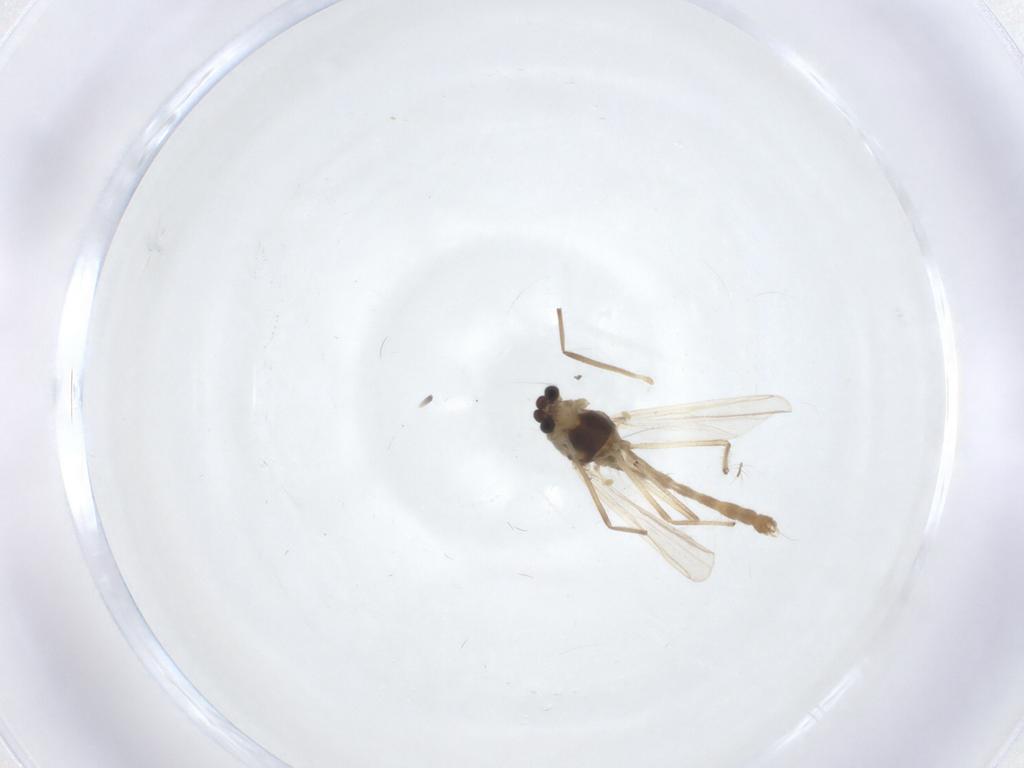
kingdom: Animalia
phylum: Arthropoda
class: Insecta
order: Diptera
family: Chironomidae
